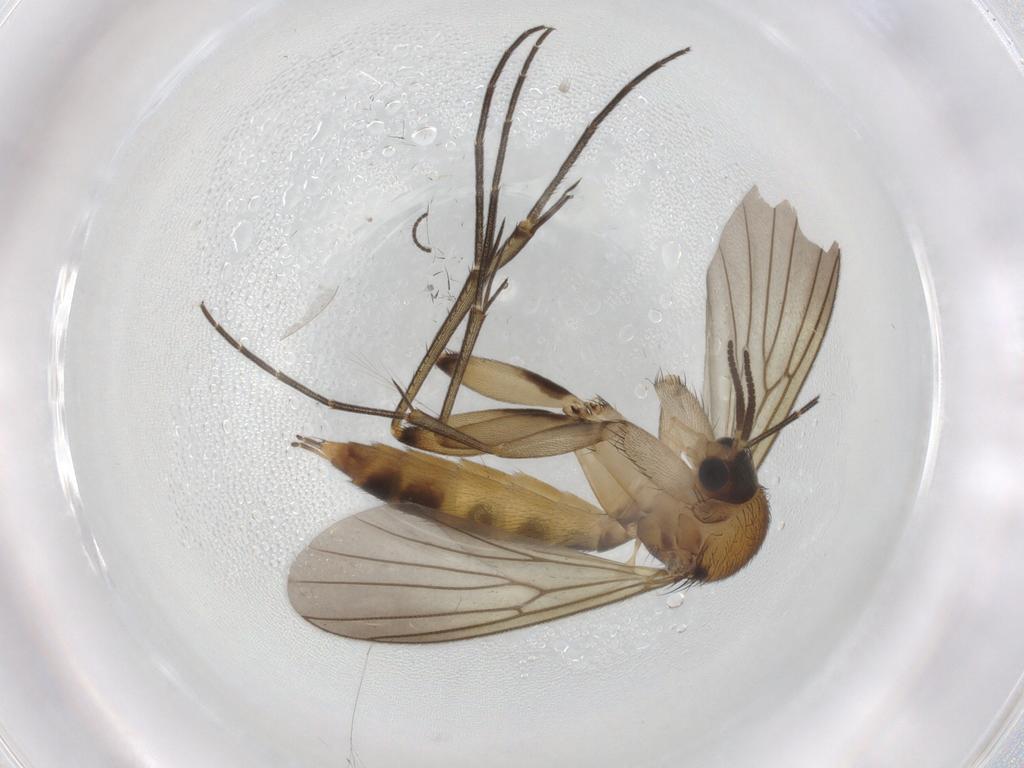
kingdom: Animalia
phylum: Arthropoda
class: Insecta
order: Diptera
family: Mycetophilidae
